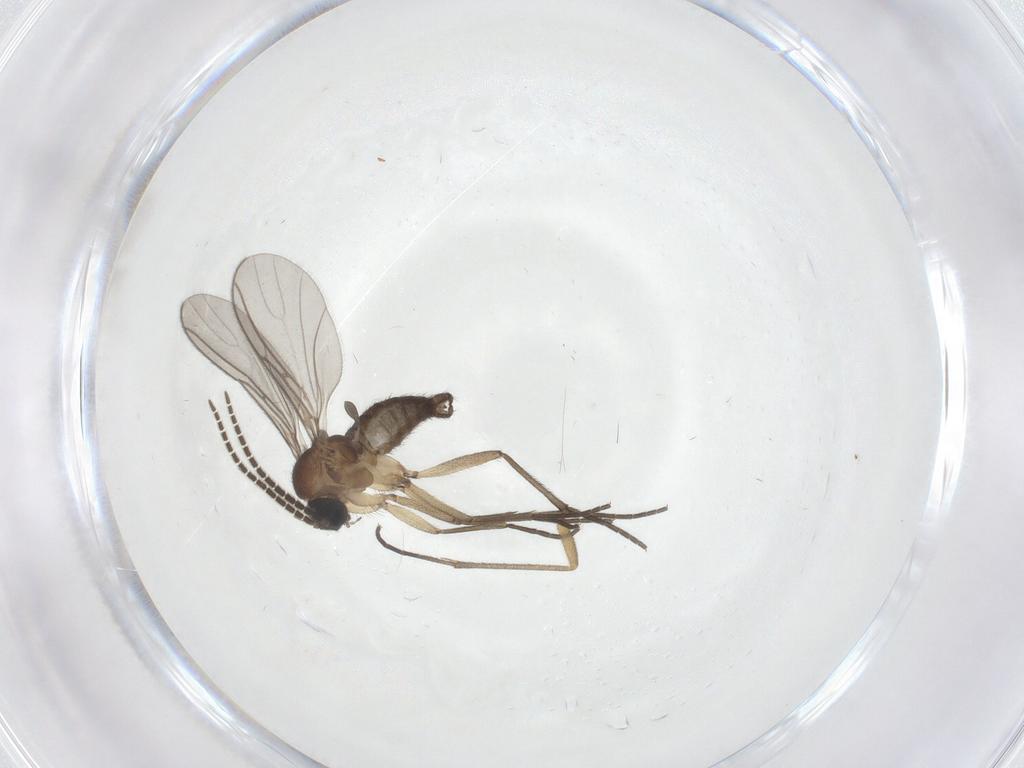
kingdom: Animalia
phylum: Arthropoda
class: Insecta
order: Diptera
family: Sciaridae
